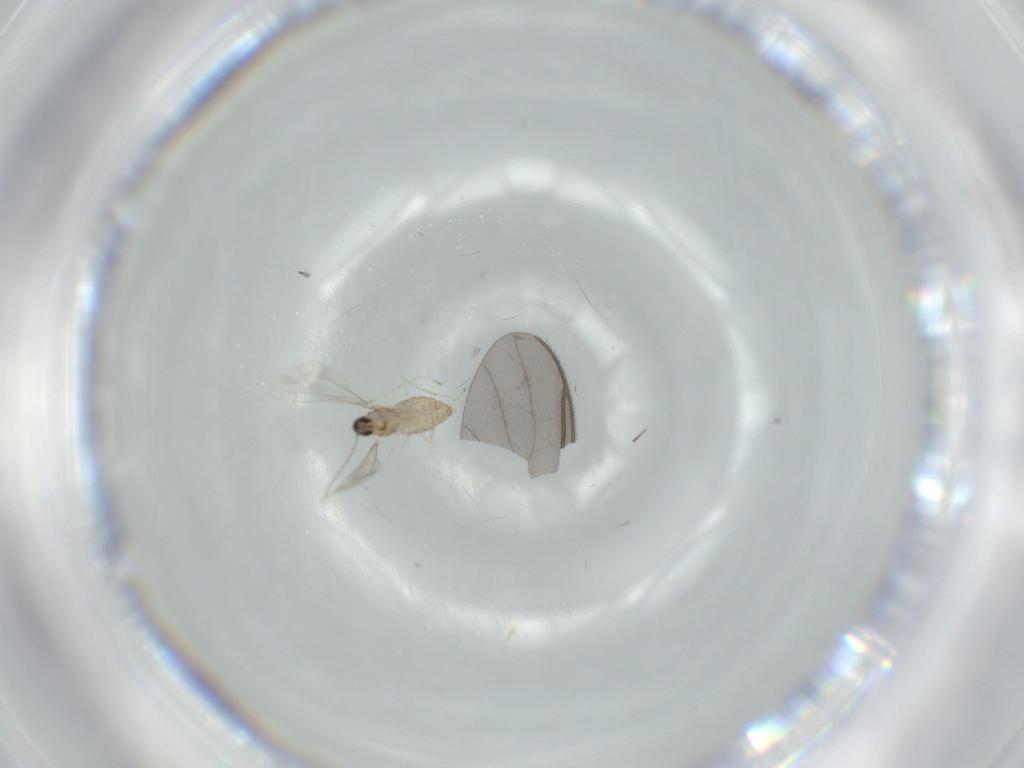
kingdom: Animalia
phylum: Arthropoda
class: Insecta
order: Diptera
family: Cecidomyiidae
